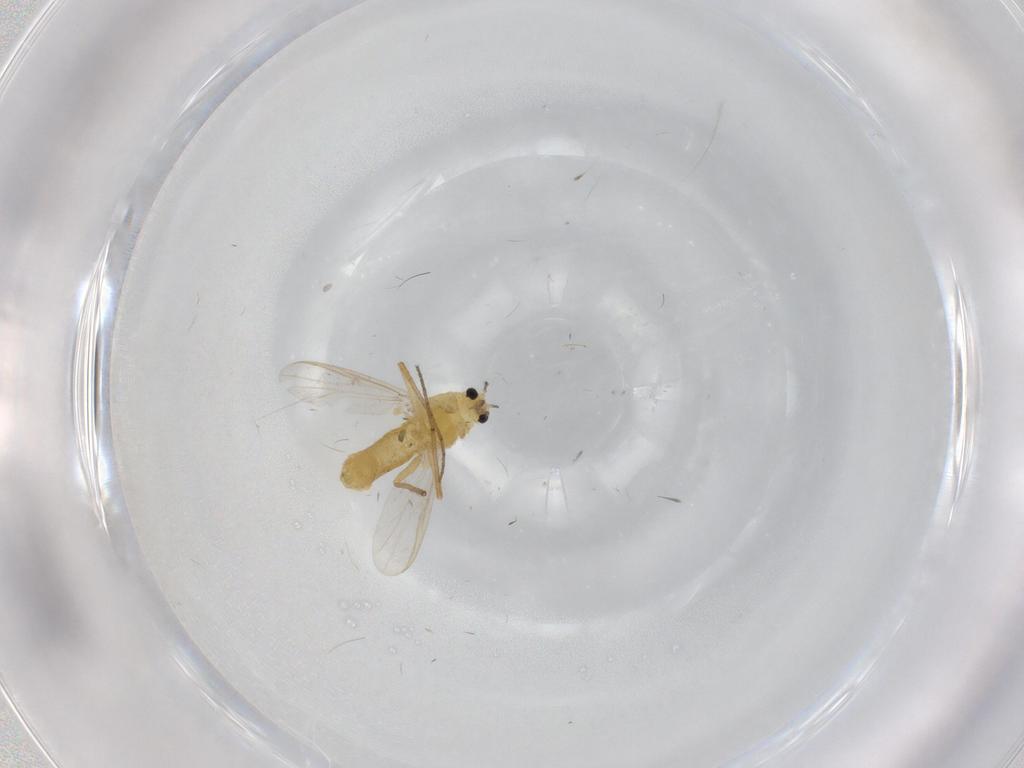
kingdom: Animalia
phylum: Arthropoda
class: Insecta
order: Diptera
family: Chironomidae
